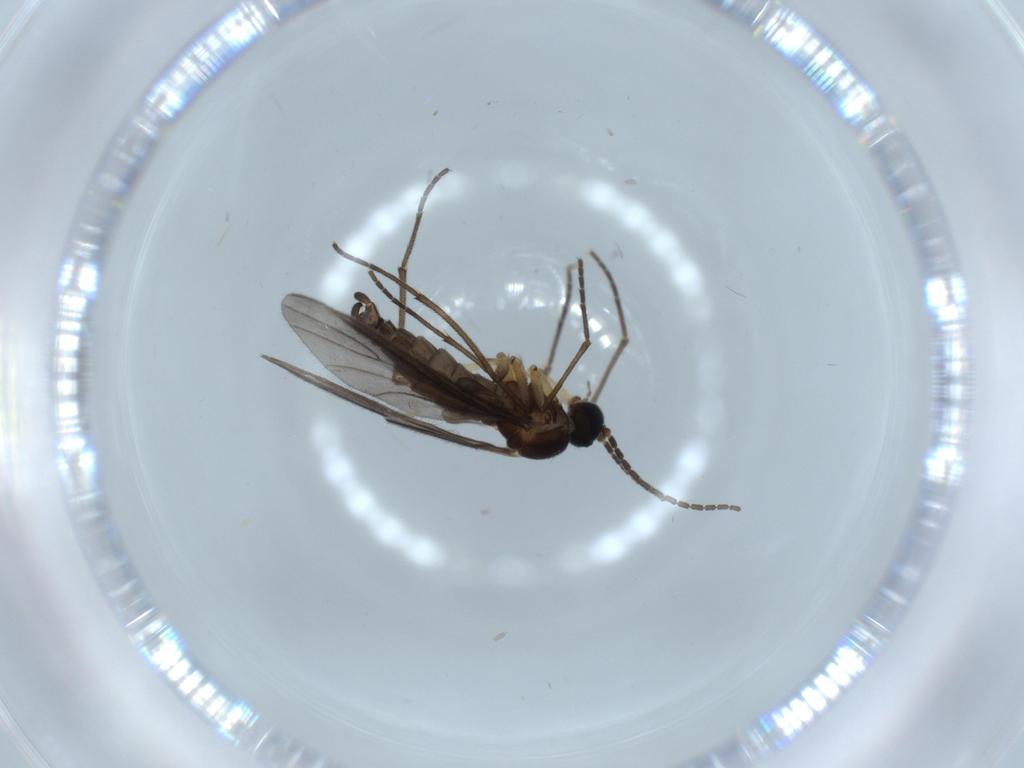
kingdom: Animalia
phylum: Arthropoda
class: Insecta
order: Diptera
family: Sciaridae
